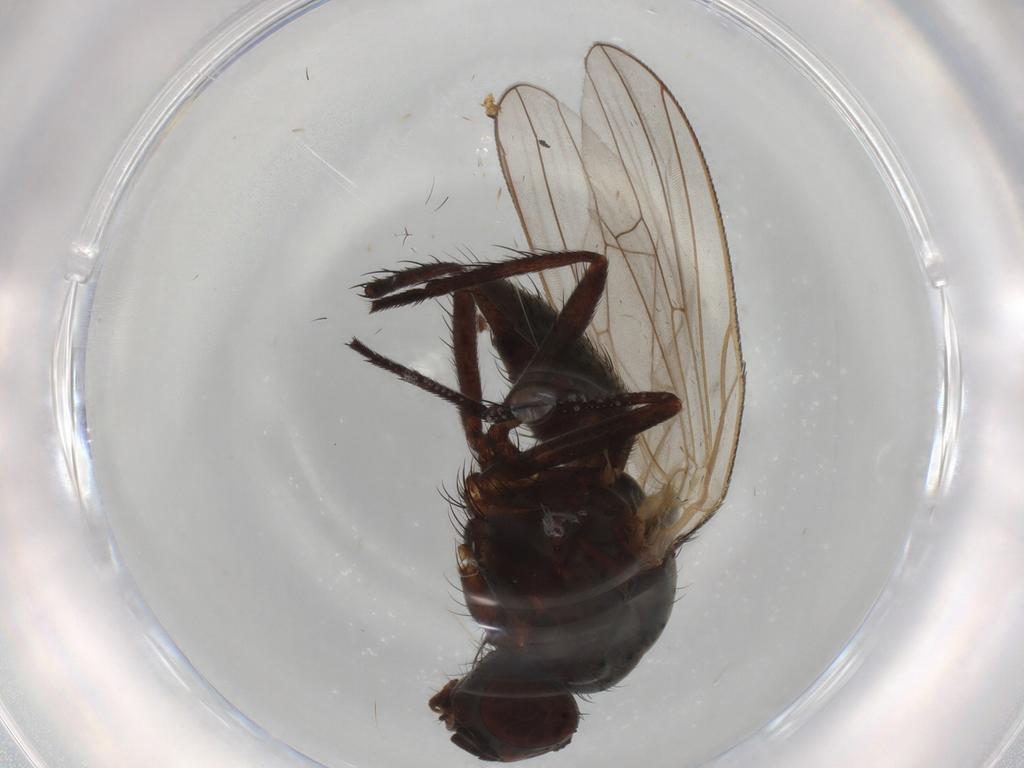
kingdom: Animalia
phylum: Arthropoda
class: Insecta
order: Diptera
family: Anthomyiidae
